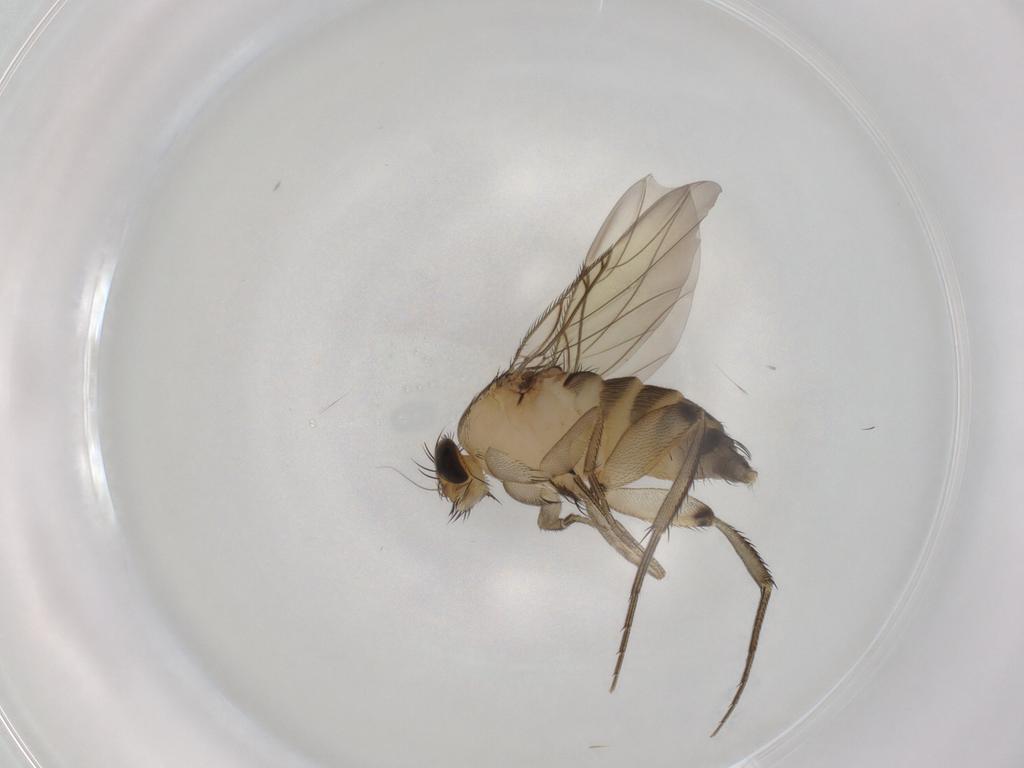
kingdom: Animalia
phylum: Arthropoda
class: Insecta
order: Diptera
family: Phoridae
